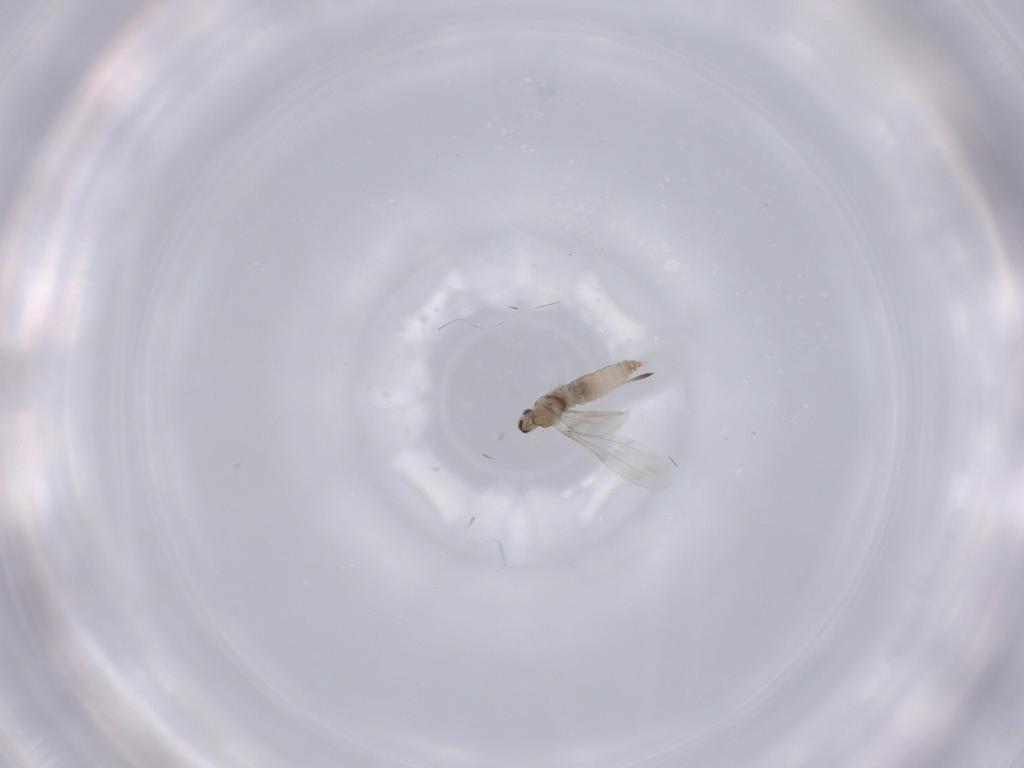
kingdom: Animalia
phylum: Arthropoda
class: Insecta
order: Diptera
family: Cecidomyiidae
